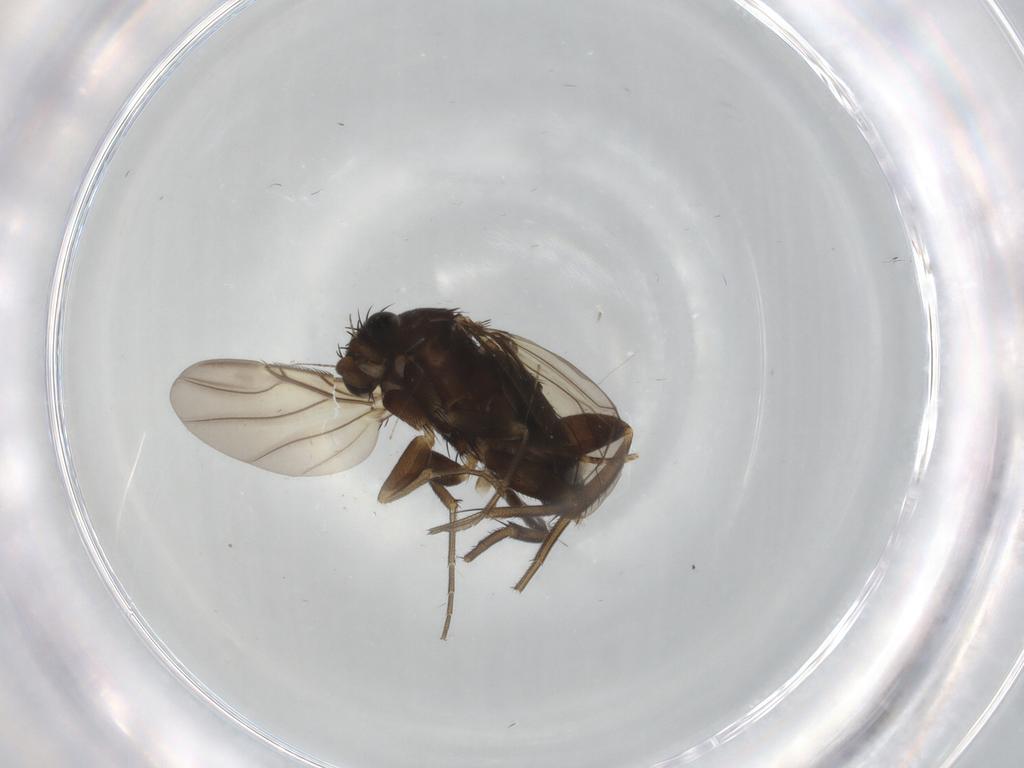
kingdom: Animalia
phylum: Arthropoda
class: Insecta
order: Diptera
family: Phoridae
